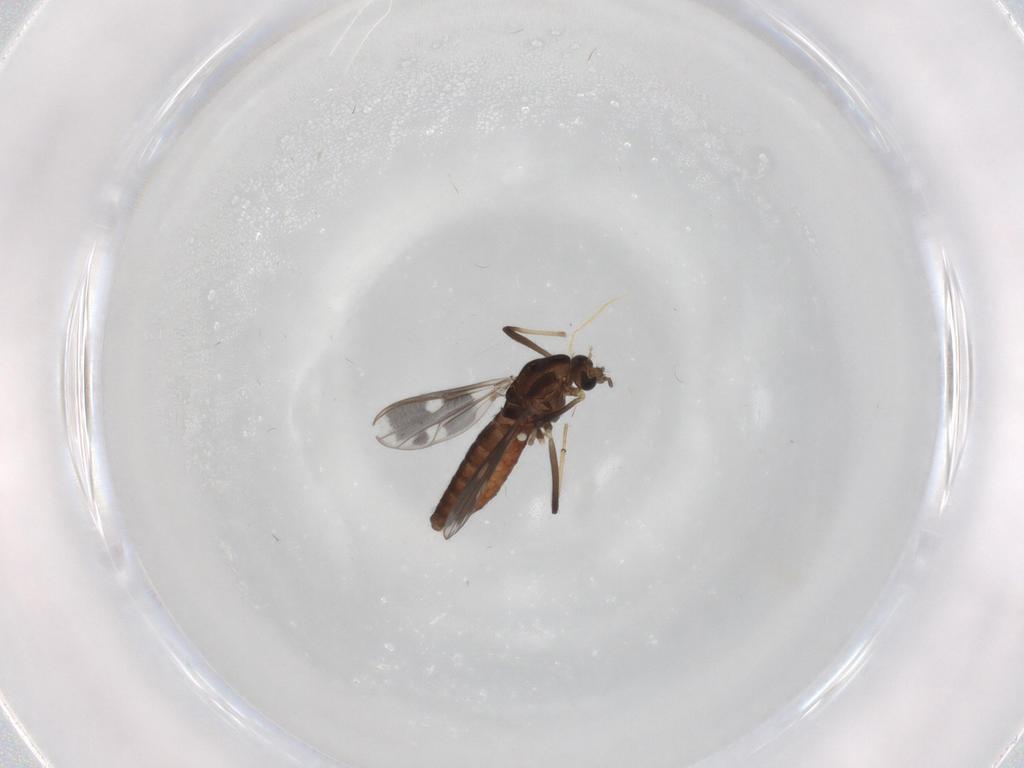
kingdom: Animalia
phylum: Arthropoda
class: Insecta
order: Diptera
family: Chironomidae
